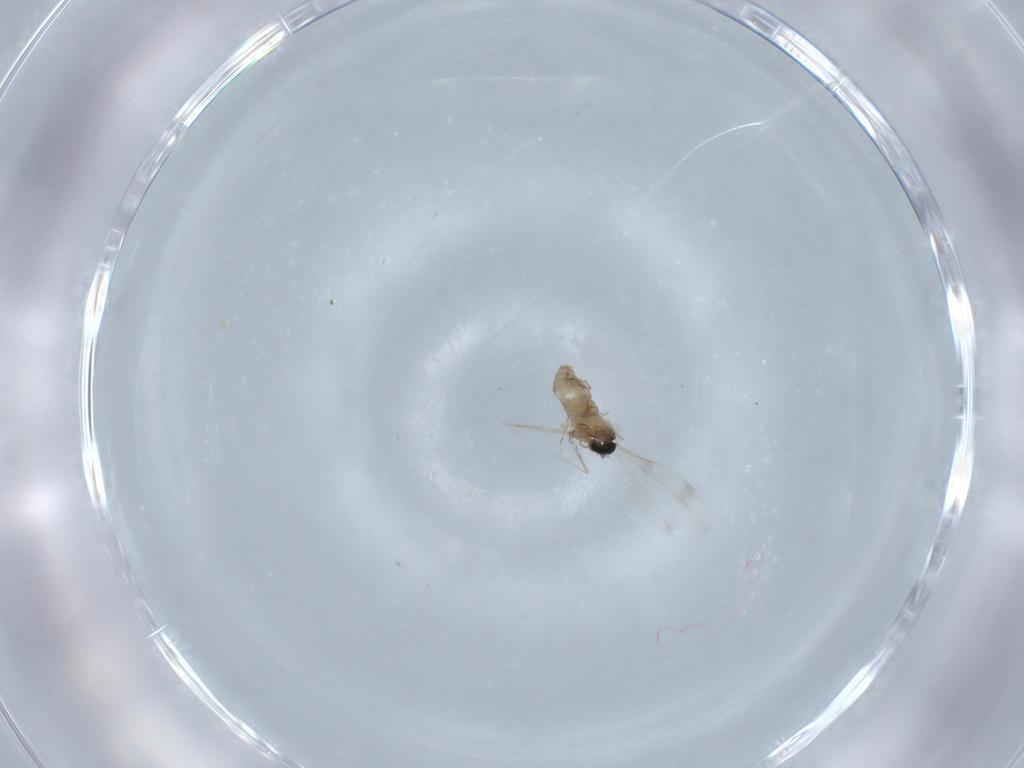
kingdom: Animalia
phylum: Arthropoda
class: Insecta
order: Diptera
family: Cecidomyiidae
